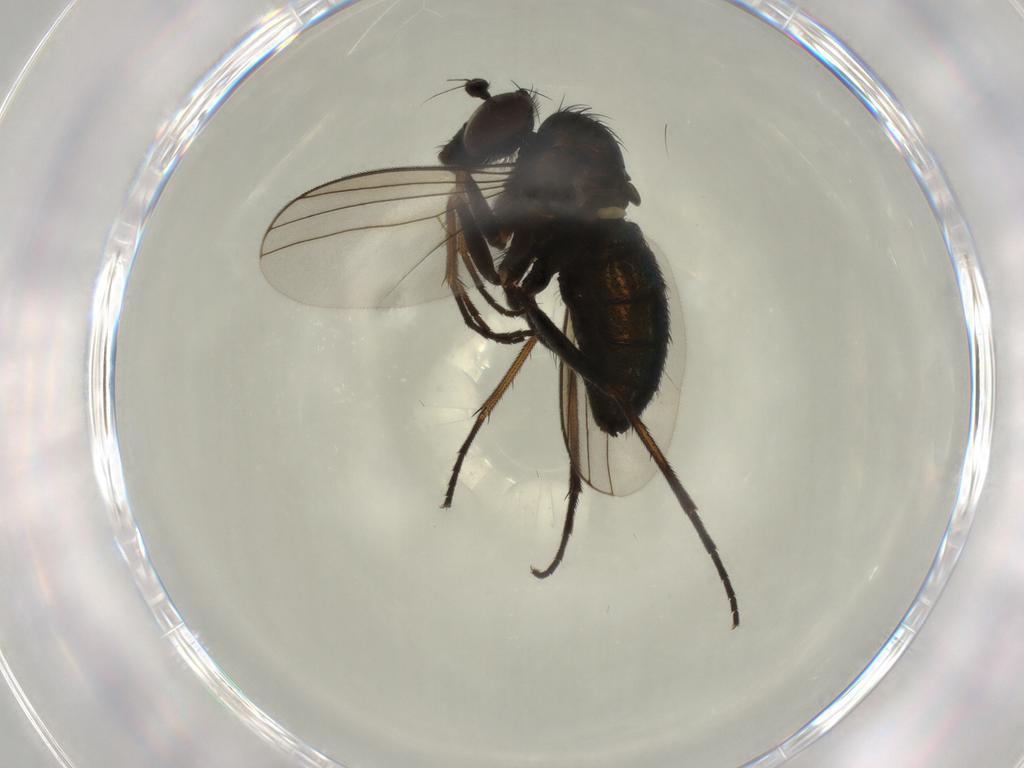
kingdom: Animalia
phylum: Arthropoda
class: Insecta
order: Diptera
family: Dolichopodidae
